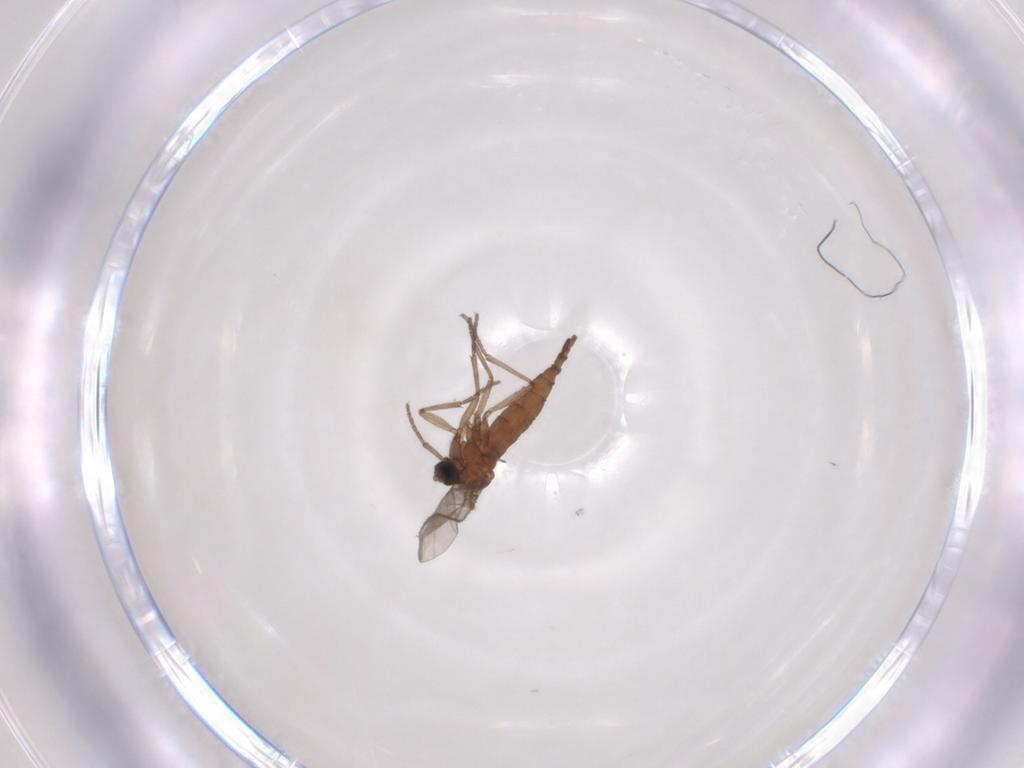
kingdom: Animalia
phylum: Arthropoda
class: Insecta
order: Diptera
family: Sciaridae
